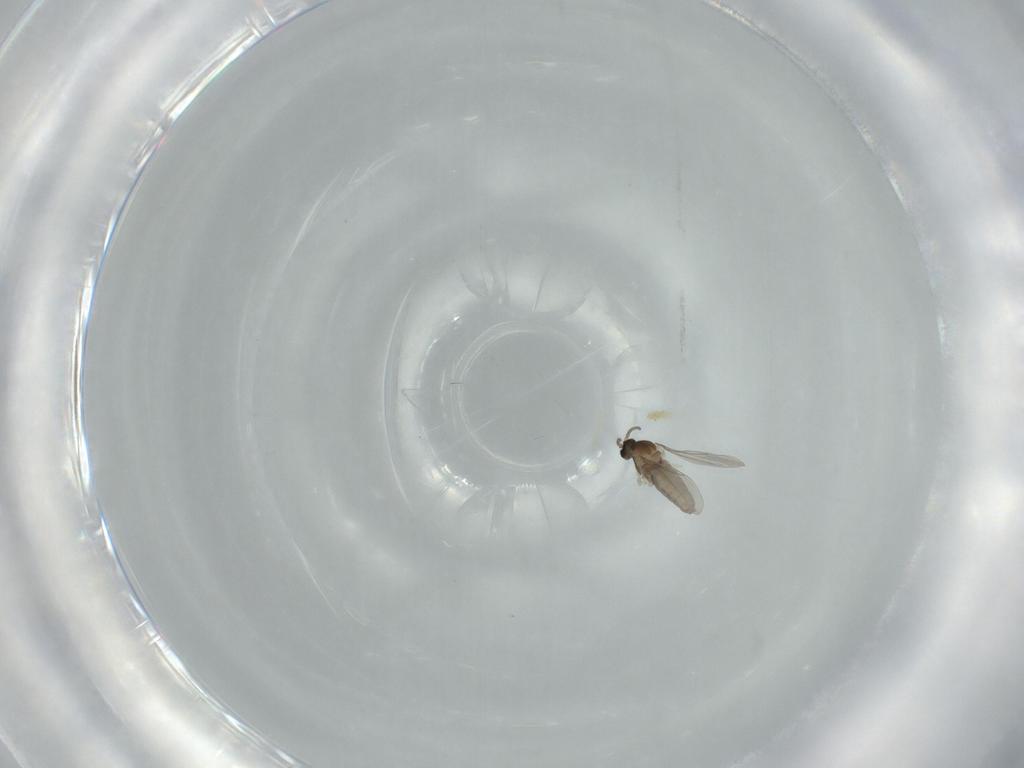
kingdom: Animalia
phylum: Arthropoda
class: Insecta
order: Diptera
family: Cecidomyiidae
